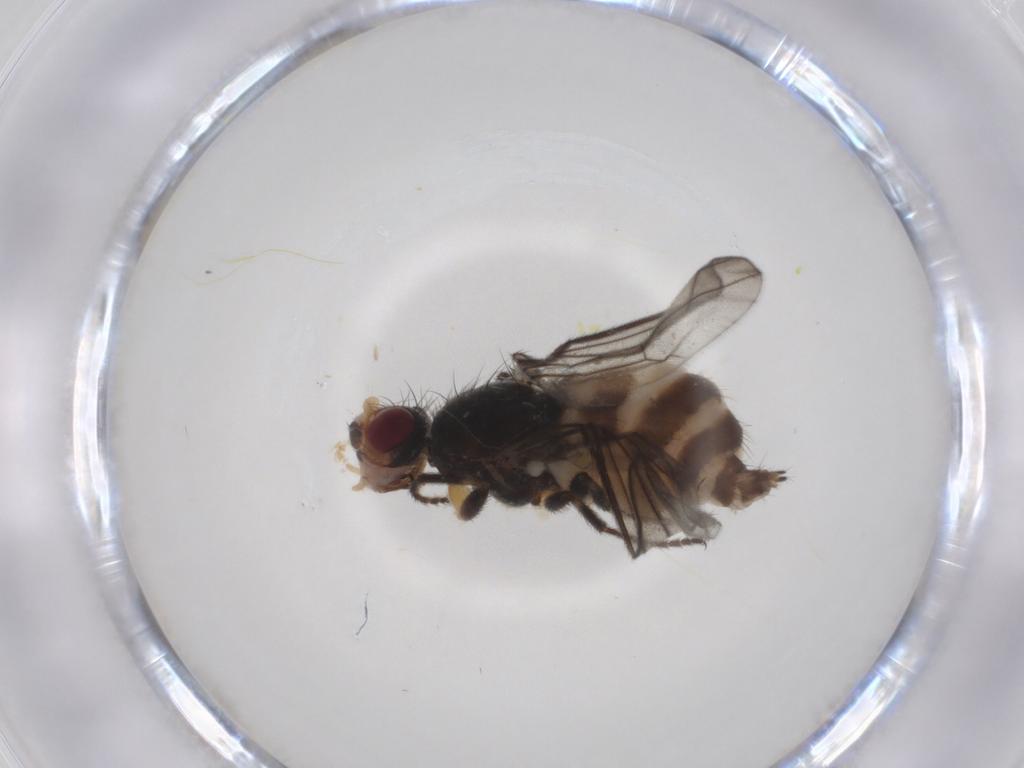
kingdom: Animalia
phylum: Arthropoda
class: Insecta
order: Diptera
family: Chloropidae
